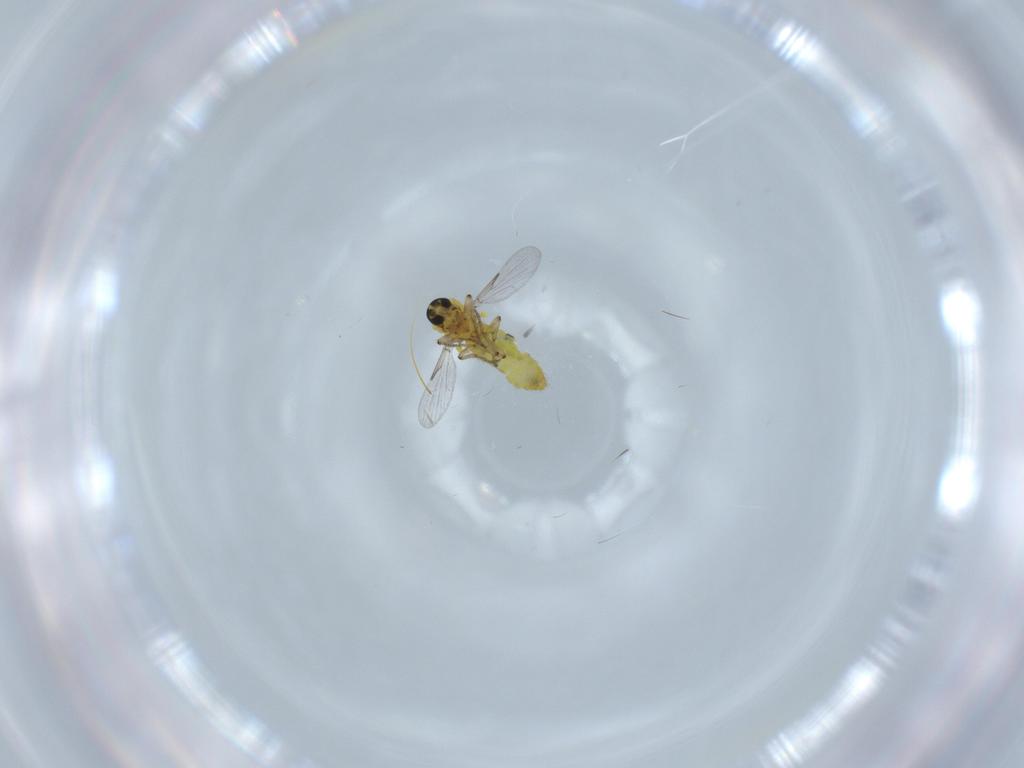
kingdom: Animalia
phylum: Arthropoda
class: Insecta
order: Diptera
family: Ceratopogonidae
